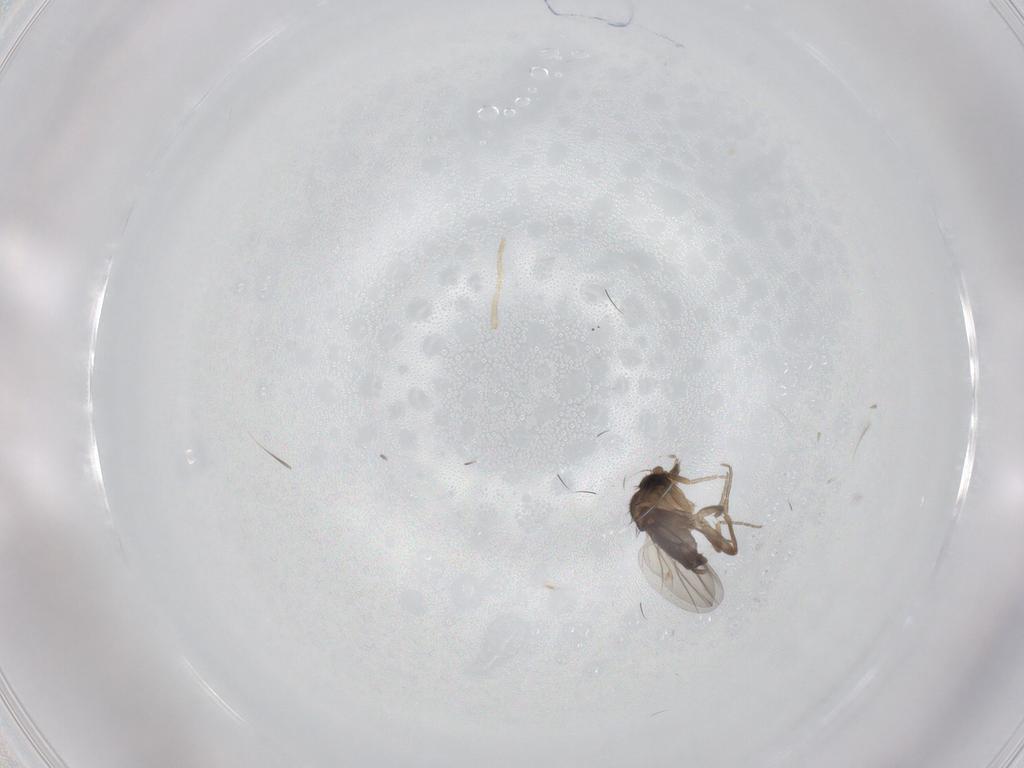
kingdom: Animalia
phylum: Arthropoda
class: Insecta
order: Diptera
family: Phoridae
